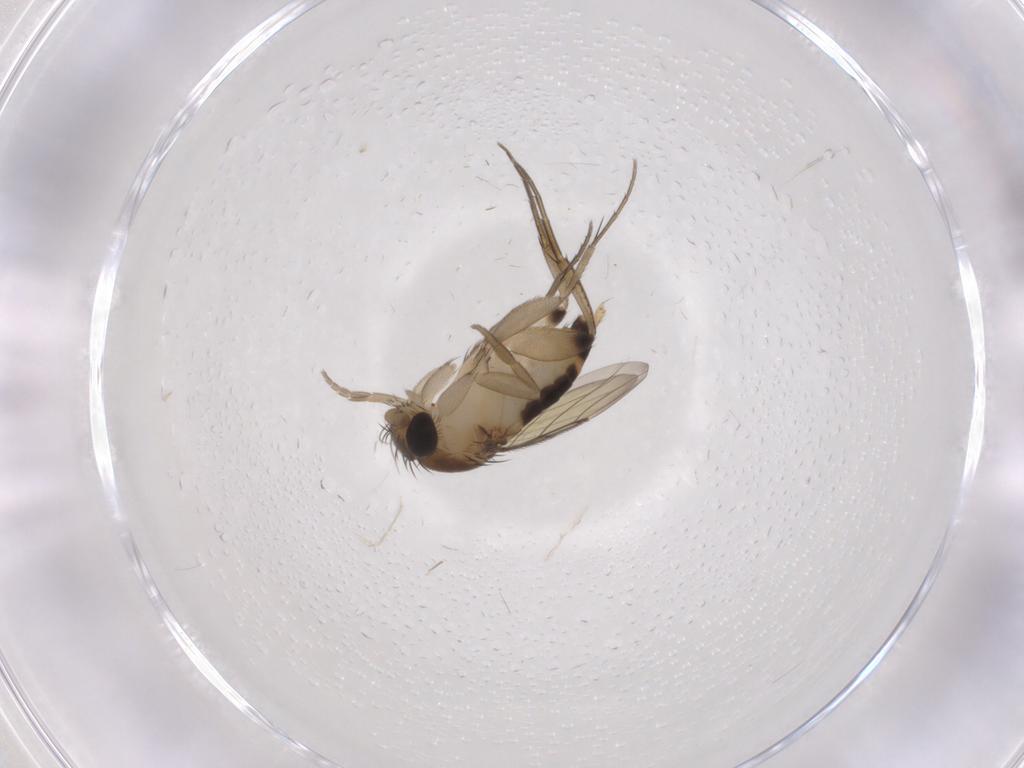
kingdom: Animalia
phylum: Arthropoda
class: Insecta
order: Diptera
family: Phoridae
